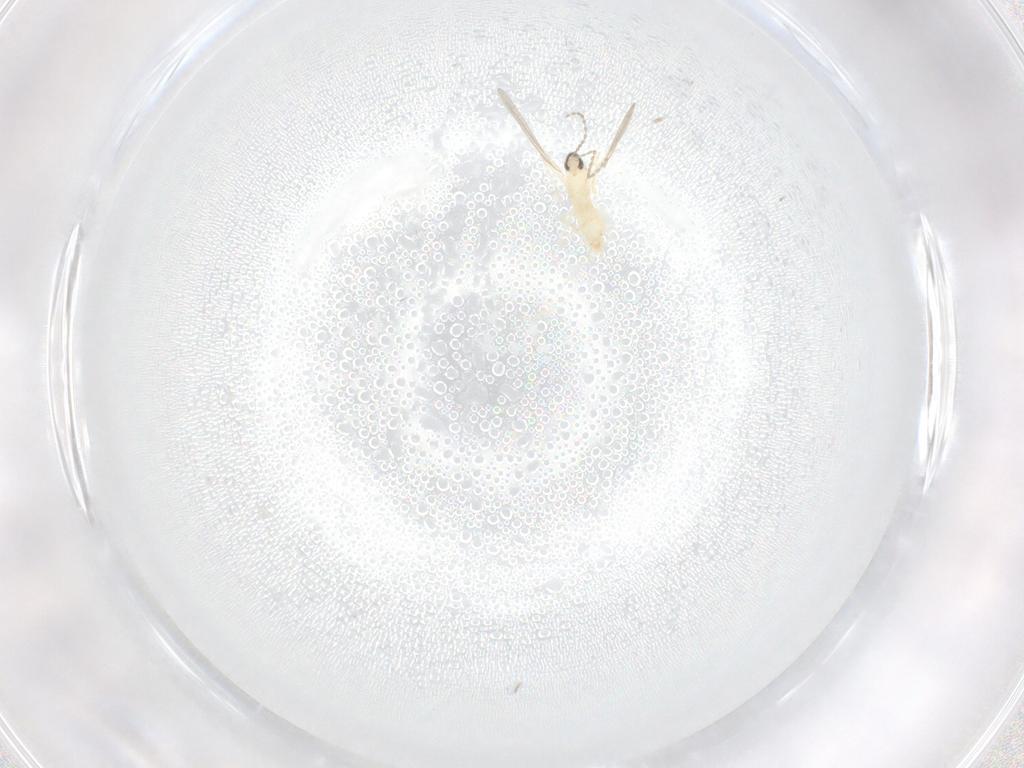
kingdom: Animalia
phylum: Arthropoda
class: Insecta
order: Diptera
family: Cecidomyiidae
